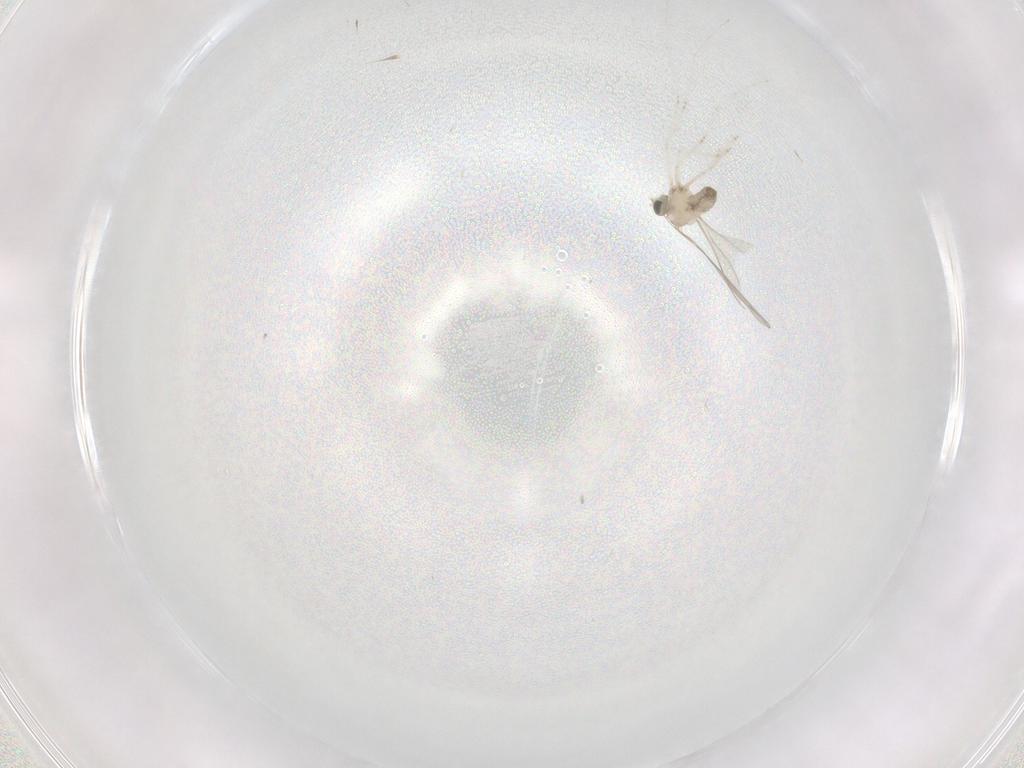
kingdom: Animalia
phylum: Arthropoda
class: Insecta
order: Diptera
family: Cecidomyiidae
